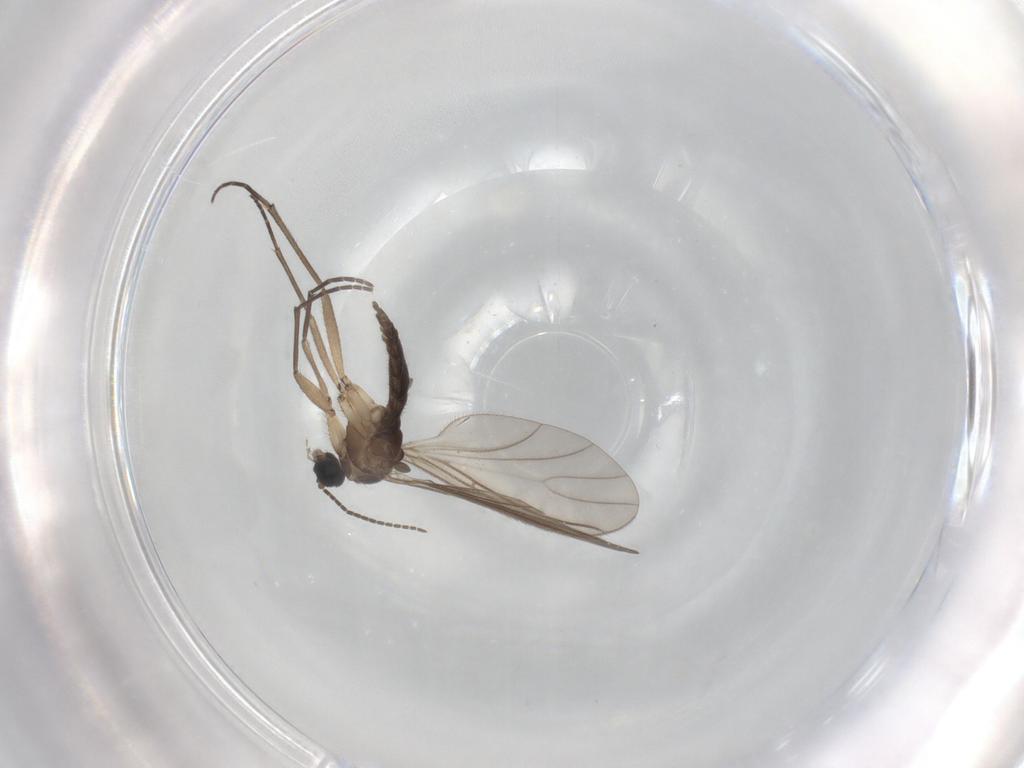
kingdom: Animalia
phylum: Arthropoda
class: Insecta
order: Diptera
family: Sciaridae
